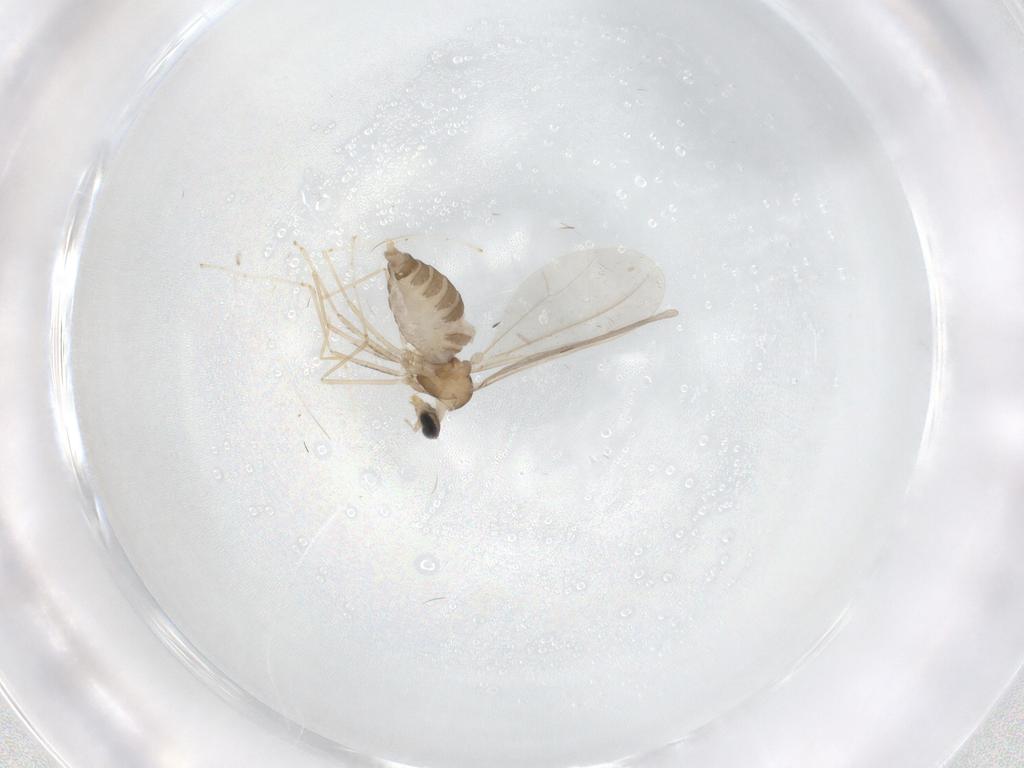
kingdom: Animalia
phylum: Arthropoda
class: Insecta
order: Diptera
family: Cecidomyiidae
